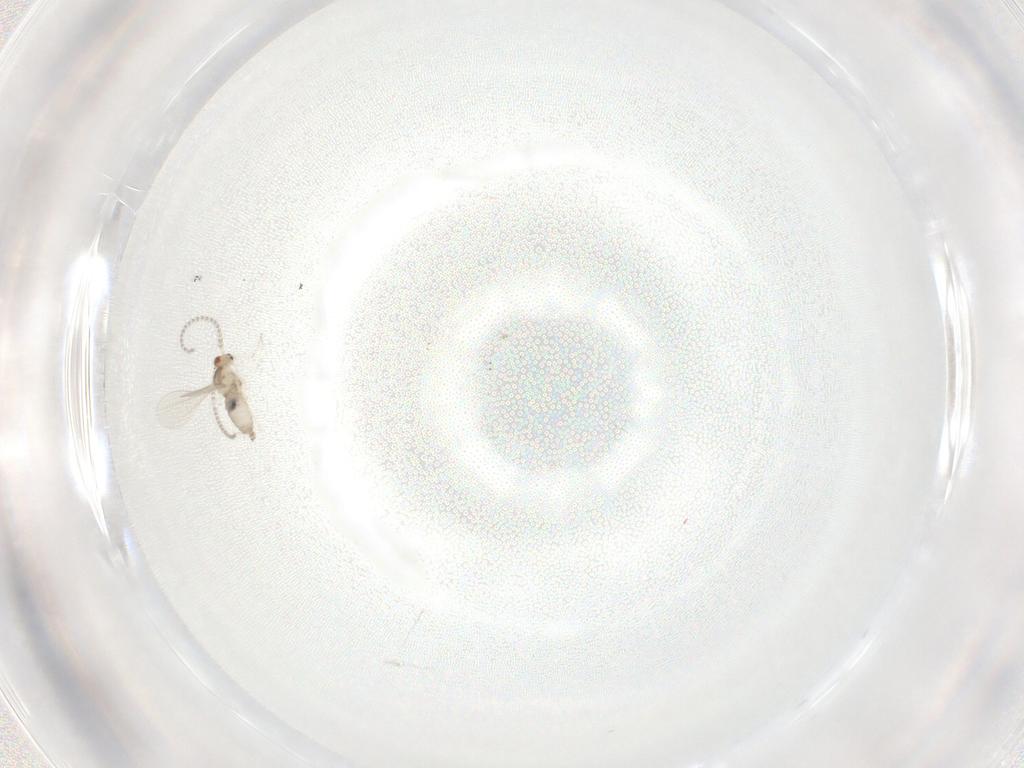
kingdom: Animalia
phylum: Arthropoda
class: Insecta
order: Diptera
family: Cecidomyiidae
